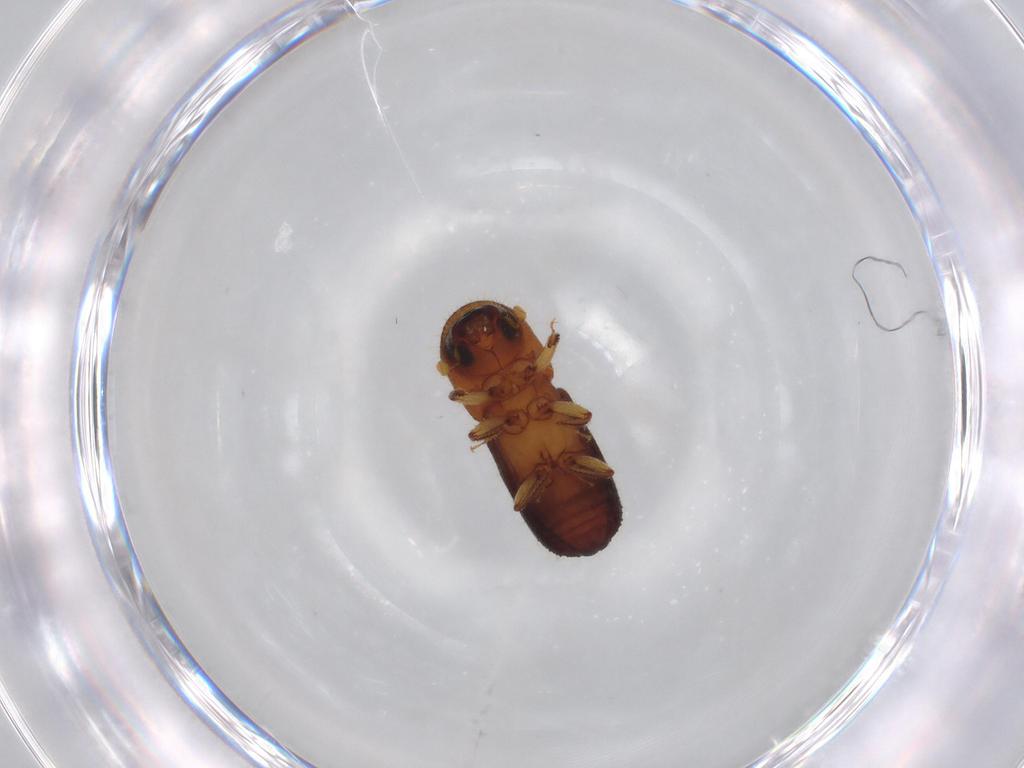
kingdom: Animalia
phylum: Arthropoda
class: Insecta
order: Coleoptera
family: Curculionidae
